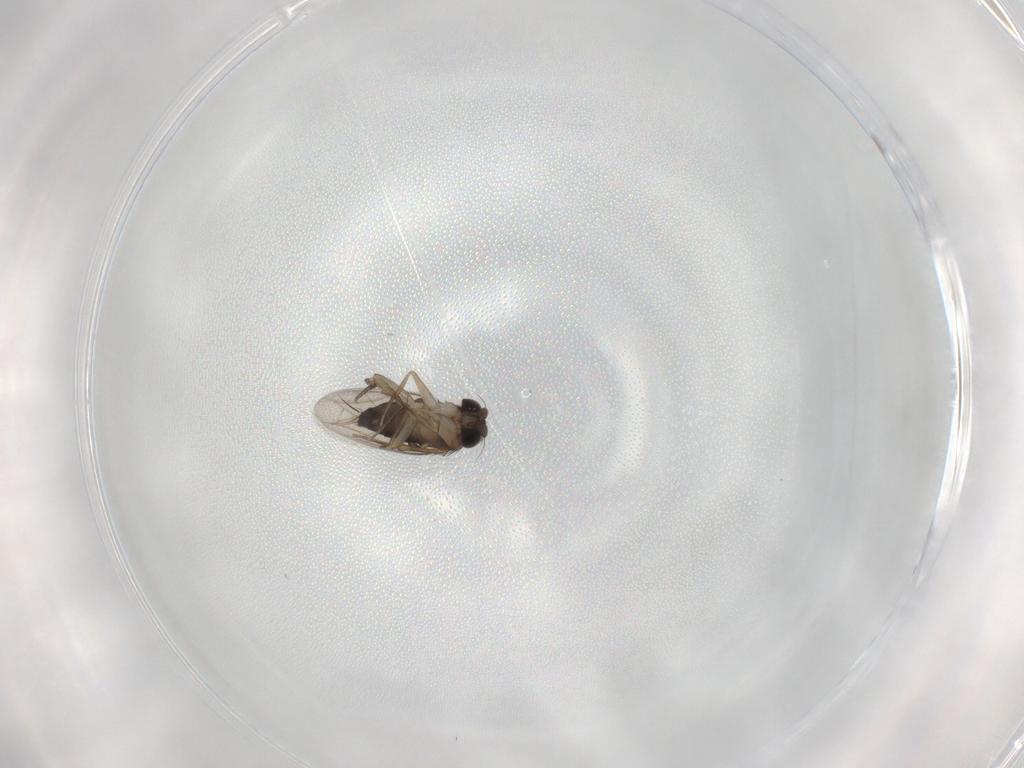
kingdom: Animalia
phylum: Arthropoda
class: Insecta
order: Diptera
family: Phoridae
